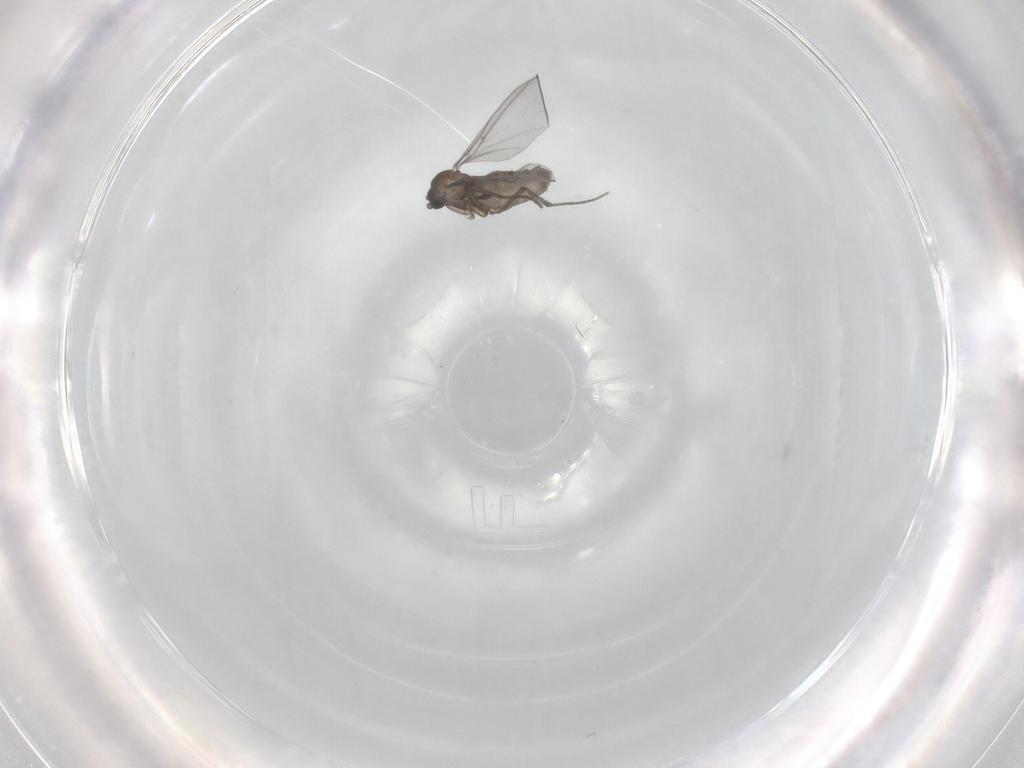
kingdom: Animalia
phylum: Arthropoda
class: Insecta
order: Diptera
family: Sciaridae
